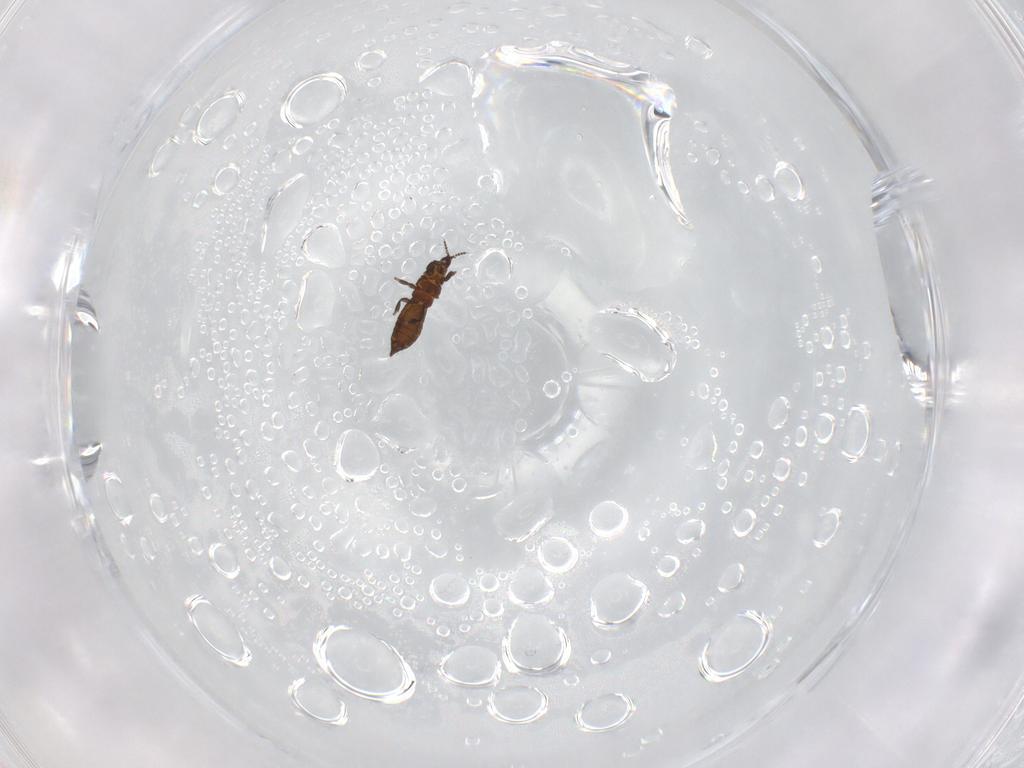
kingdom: Animalia
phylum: Arthropoda
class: Insecta
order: Thysanoptera
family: Thripidae
